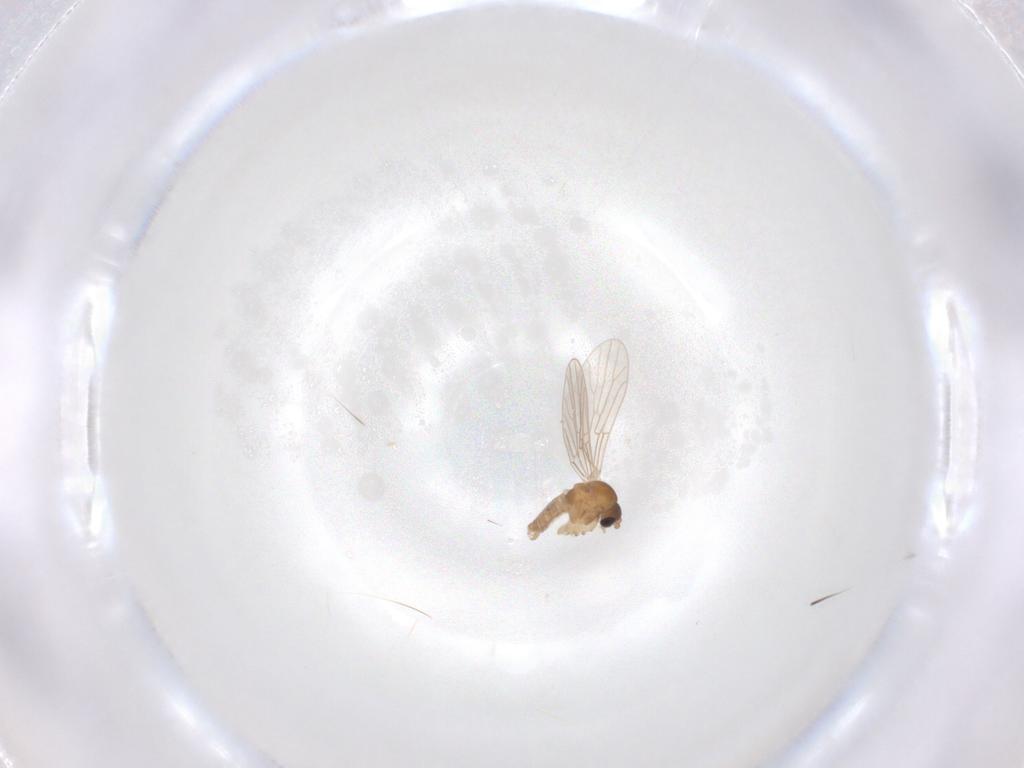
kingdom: Animalia
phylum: Arthropoda
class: Insecta
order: Diptera
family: Psychodidae
